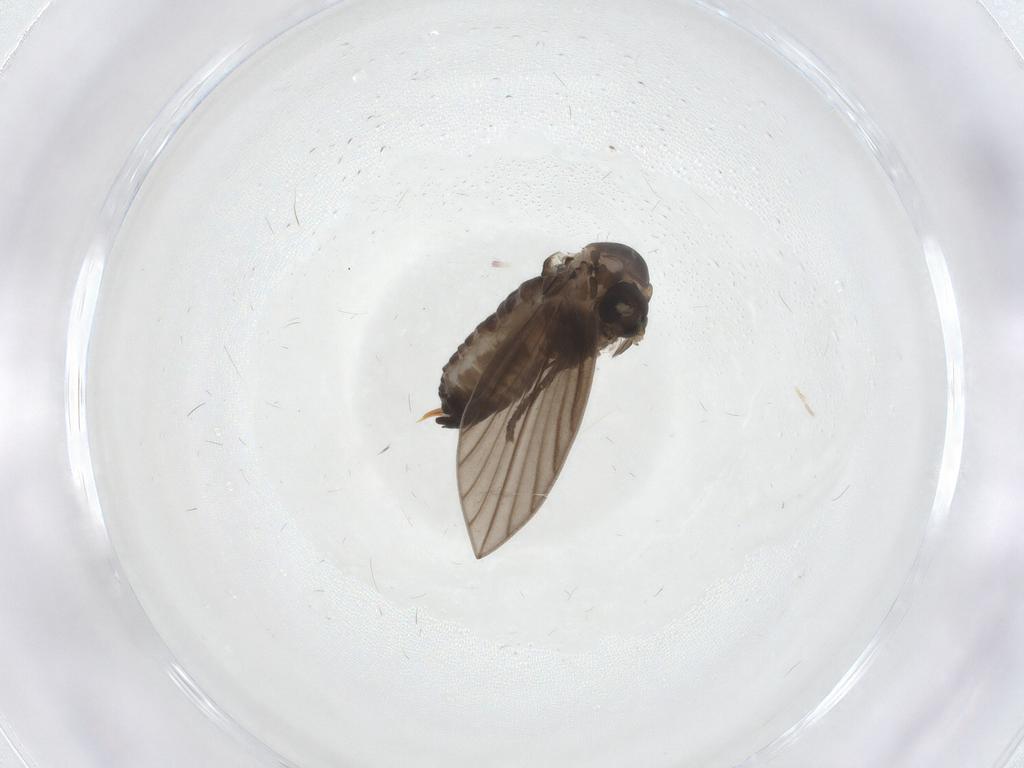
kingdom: Animalia
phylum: Arthropoda
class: Insecta
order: Diptera
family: Psychodidae
